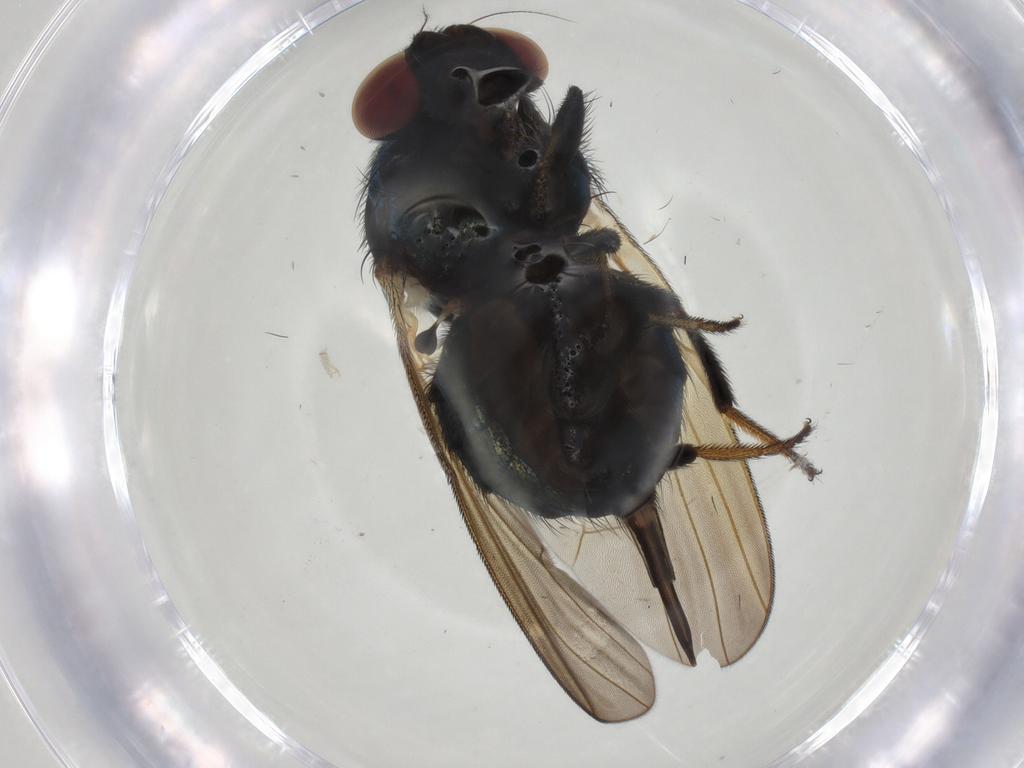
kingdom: Animalia
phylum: Arthropoda
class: Insecta
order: Diptera
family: Lonchaeidae
